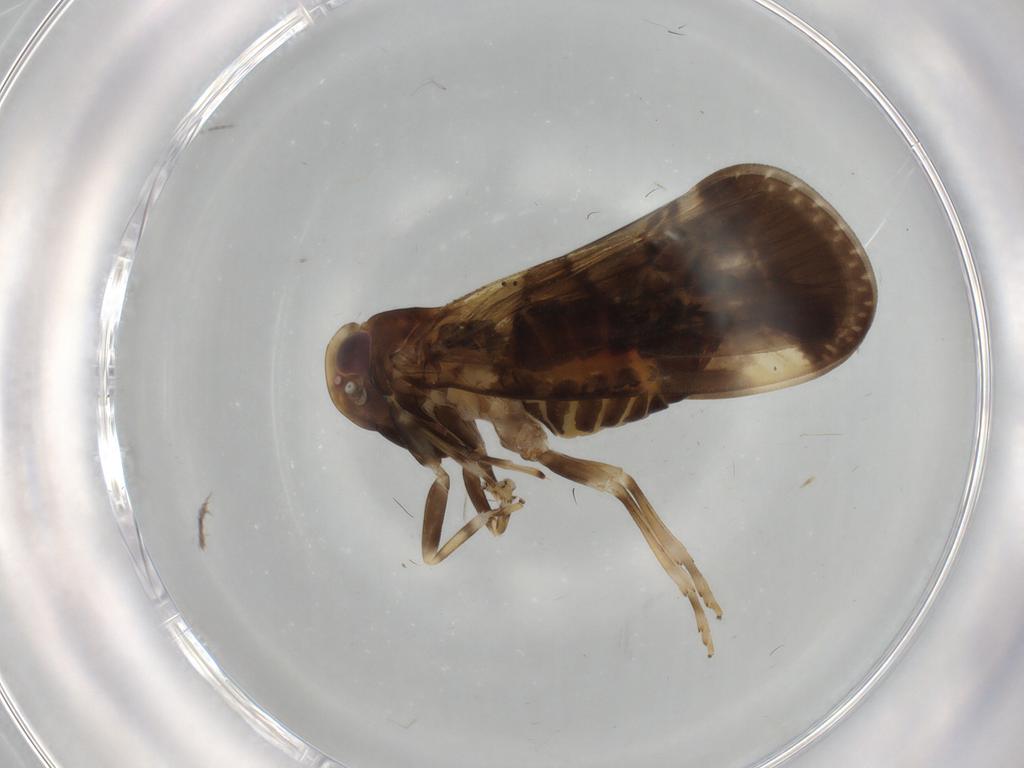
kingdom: Animalia
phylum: Arthropoda
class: Insecta
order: Hemiptera
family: Cixiidae
